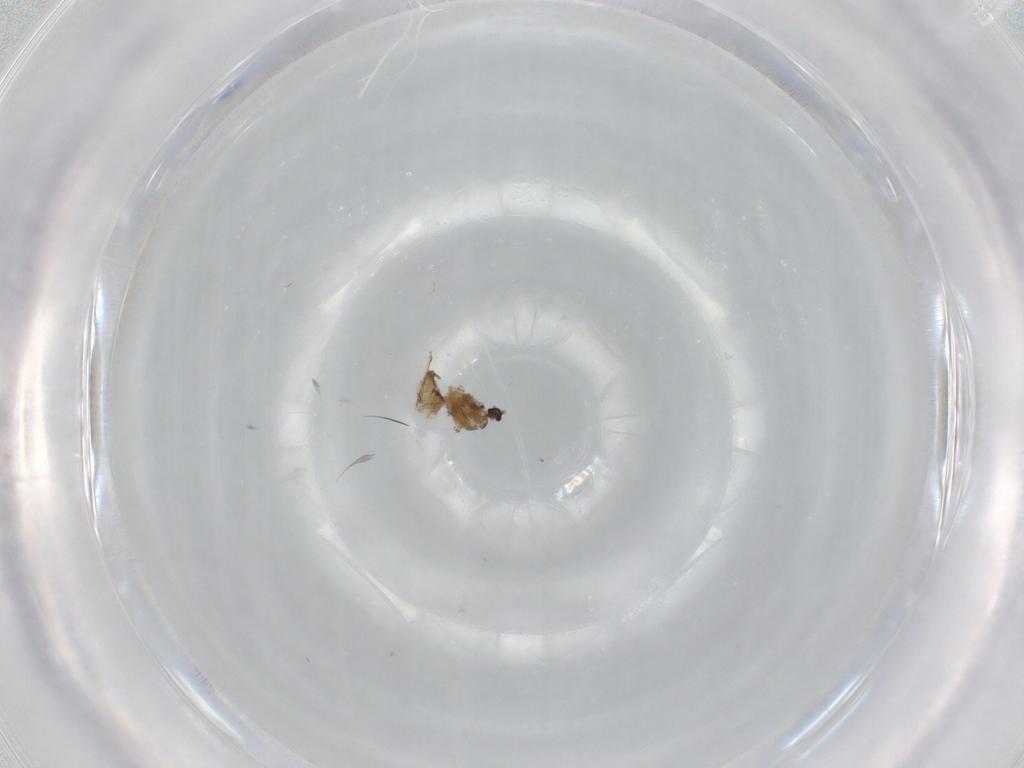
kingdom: Animalia
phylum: Arthropoda
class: Insecta
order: Diptera
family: Cecidomyiidae
